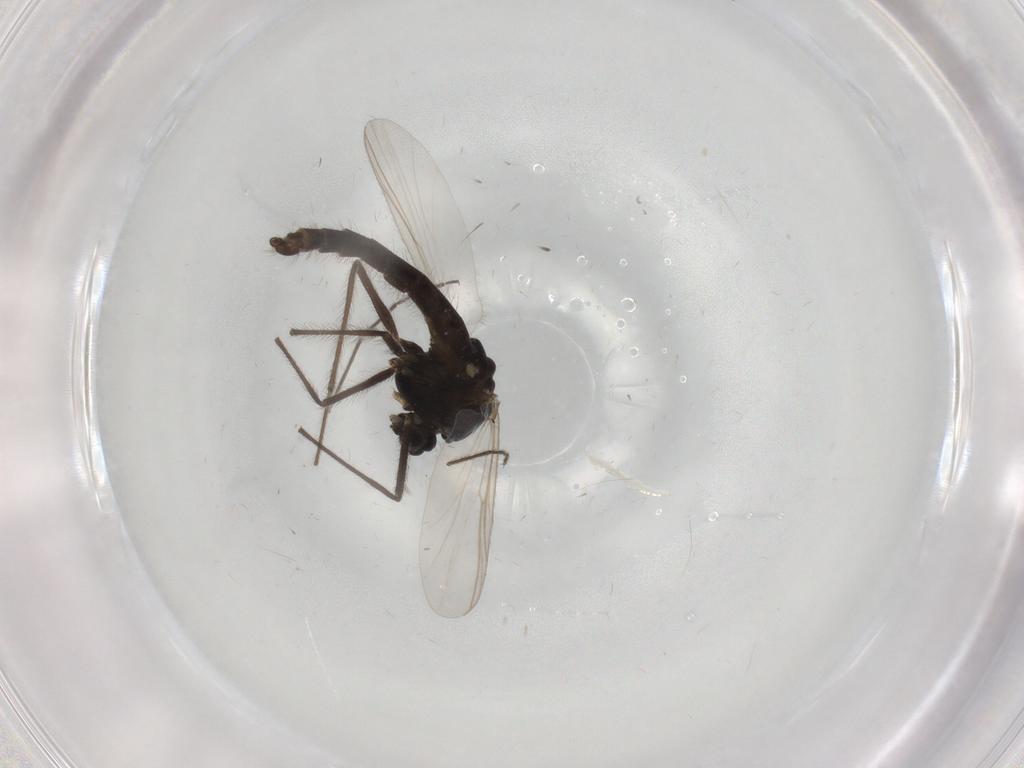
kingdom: Animalia
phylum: Arthropoda
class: Insecta
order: Diptera
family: Chironomidae
